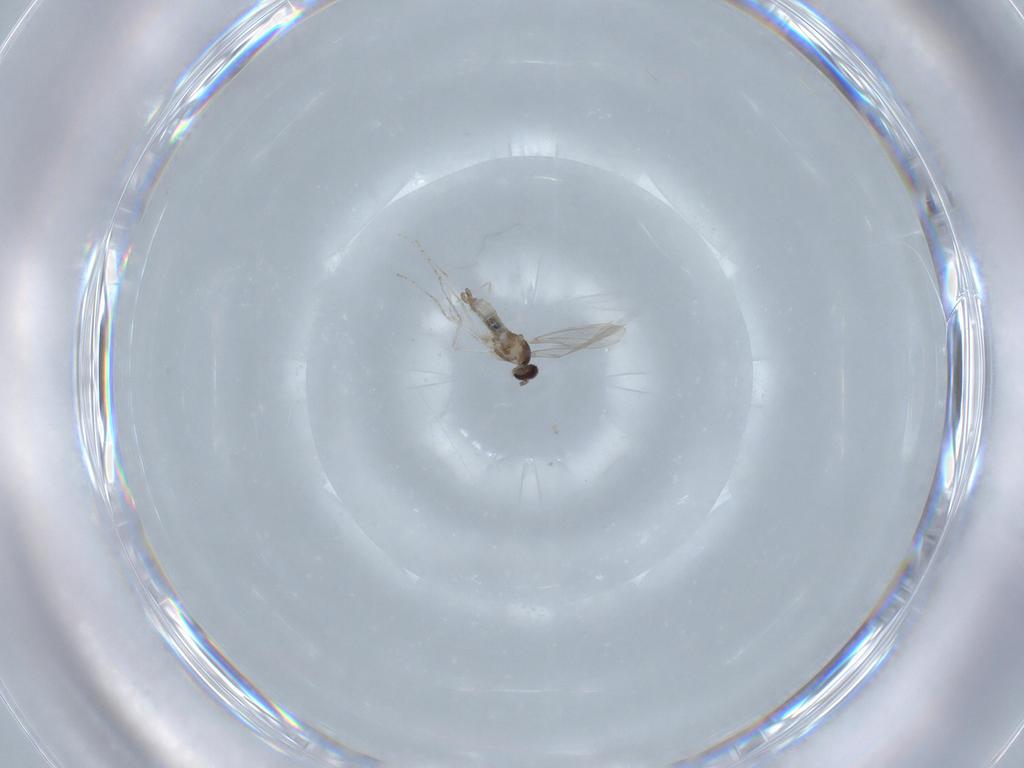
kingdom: Animalia
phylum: Arthropoda
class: Insecta
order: Diptera
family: Cecidomyiidae
